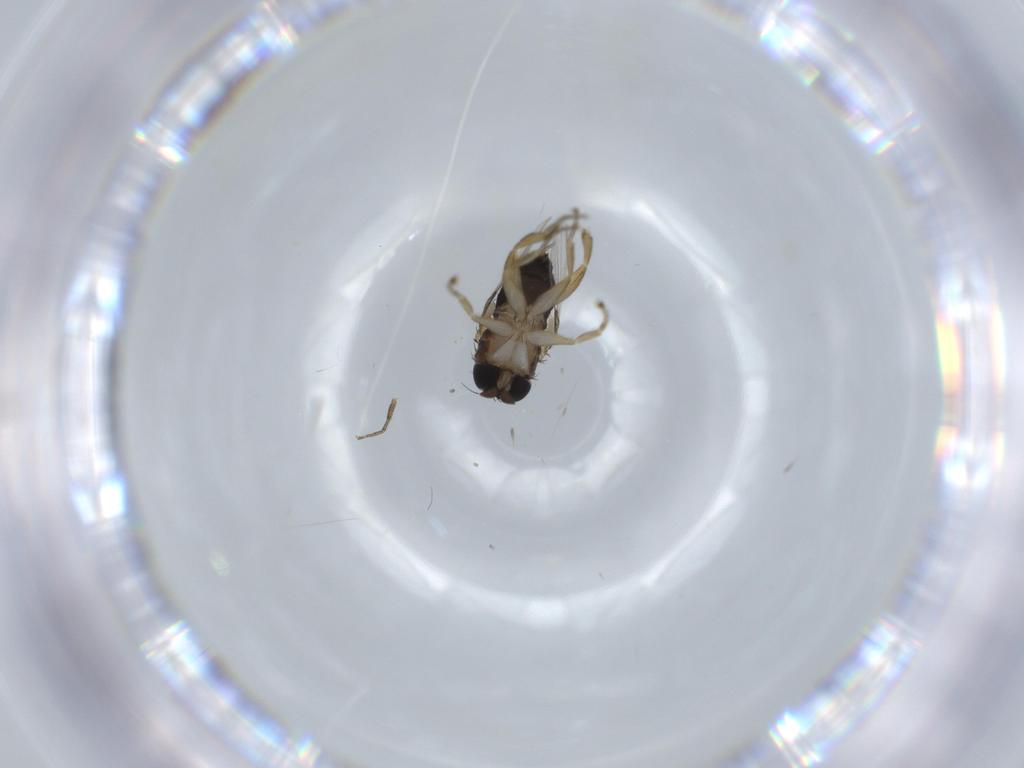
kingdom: Animalia
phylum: Arthropoda
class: Insecta
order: Diptera
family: Phoridae
